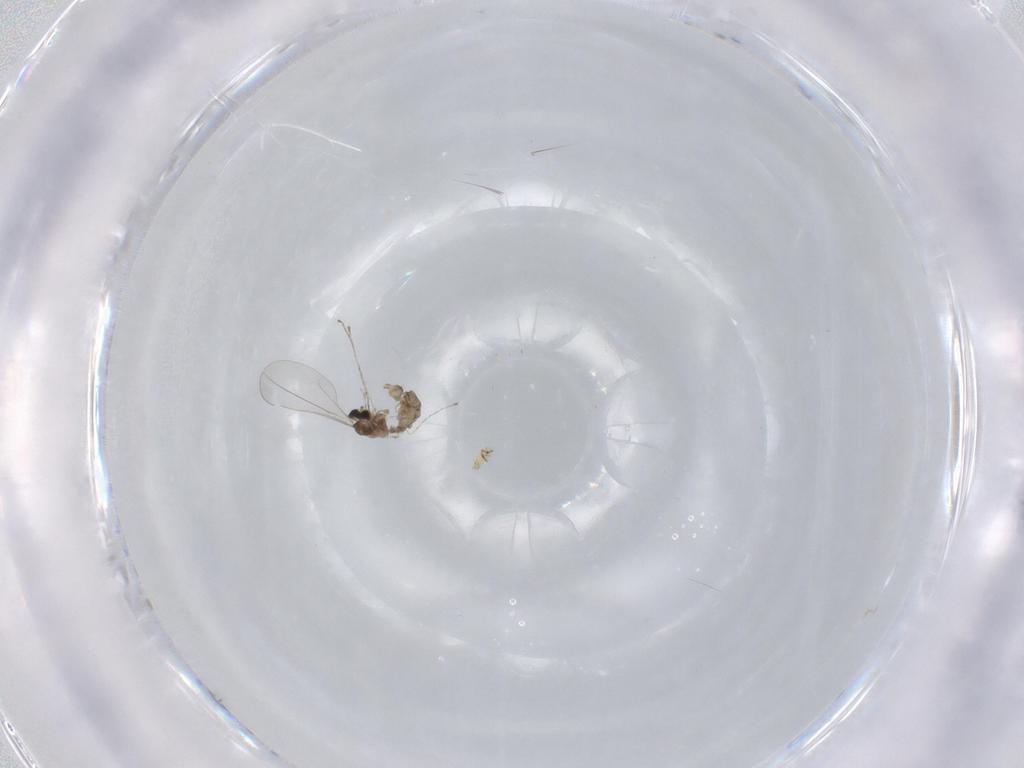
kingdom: Animalia
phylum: Arthropoda
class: Insecta
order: Diptera
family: Cecidomyiidae
